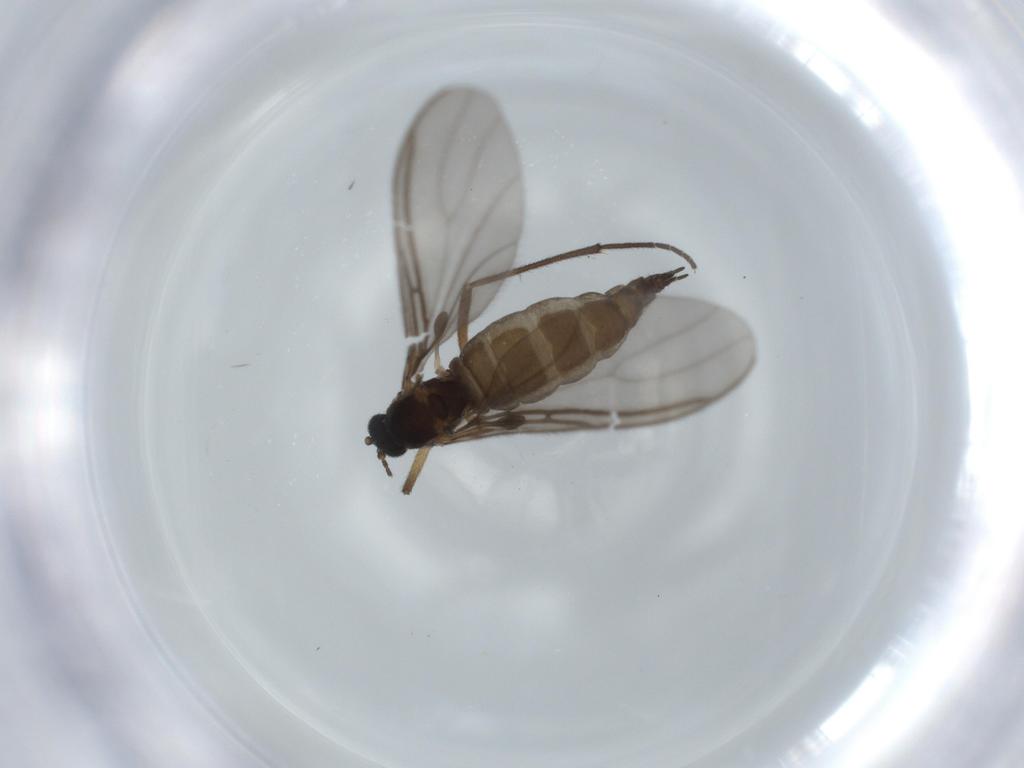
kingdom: Animalia
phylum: Arthropoda
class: Insecta
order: Diptera
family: Sciaridae
